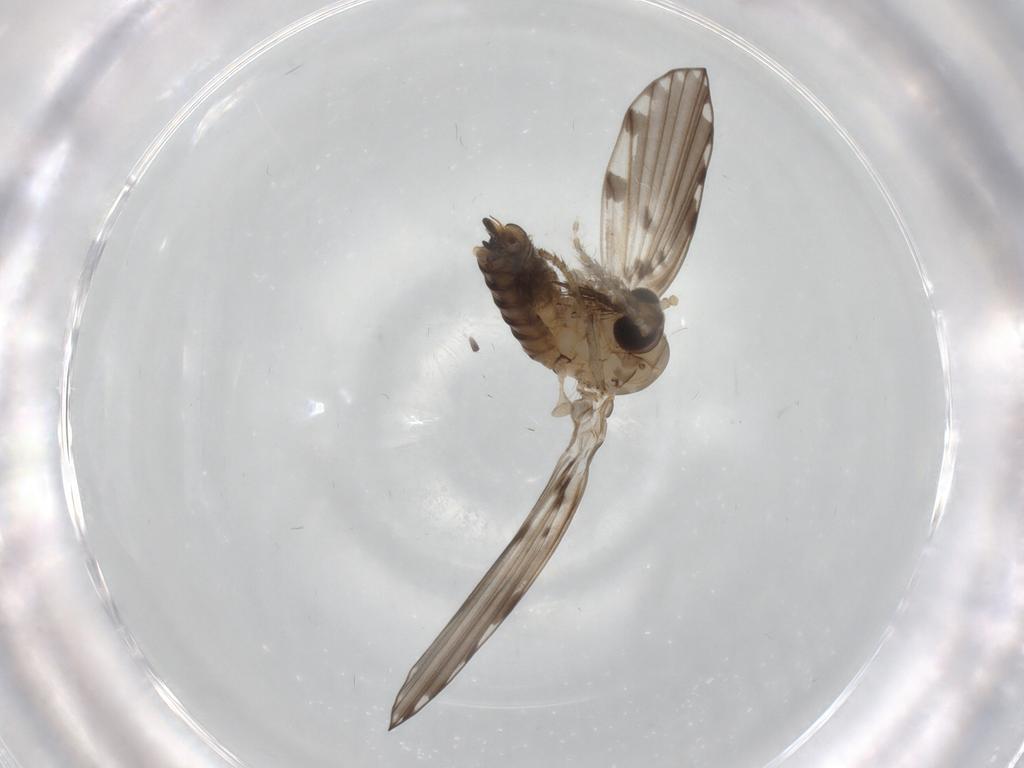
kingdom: Animalia
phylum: Arthropoda
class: Insecta
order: Diptera
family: Psychodidae
